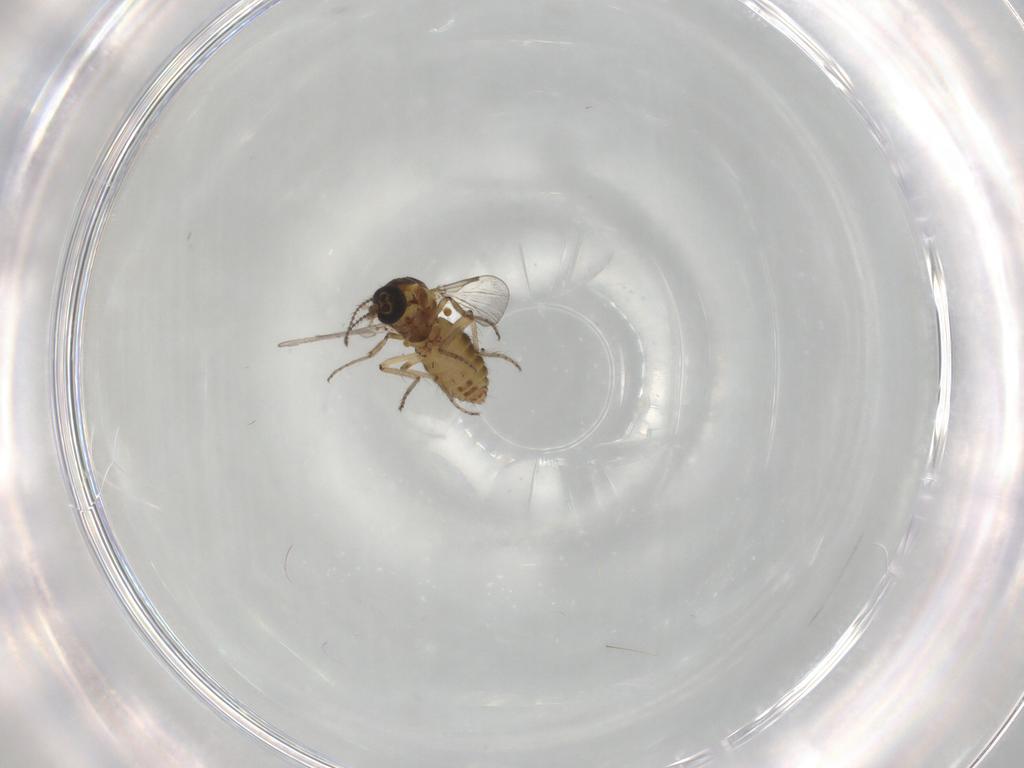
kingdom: Animalia
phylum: Arthropoda
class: Insecta
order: Diptera
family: Ceratopogonidae
